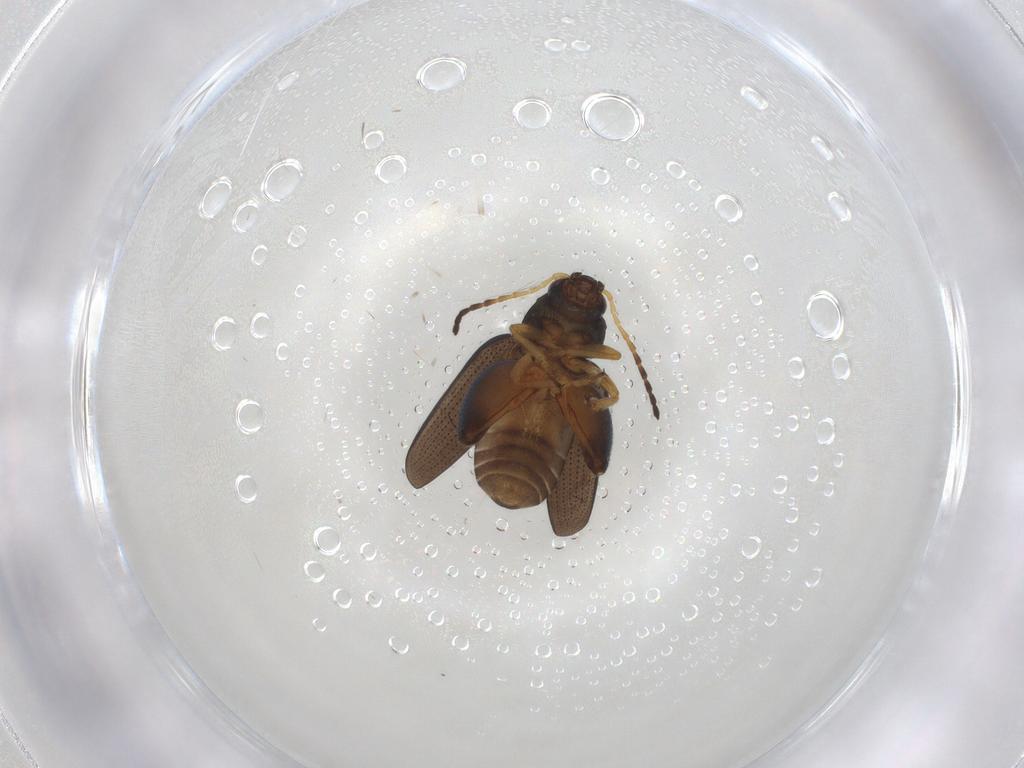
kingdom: Animalia
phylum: Arthropoda
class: Insecta
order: Coleoptera
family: Chrysomelidae
